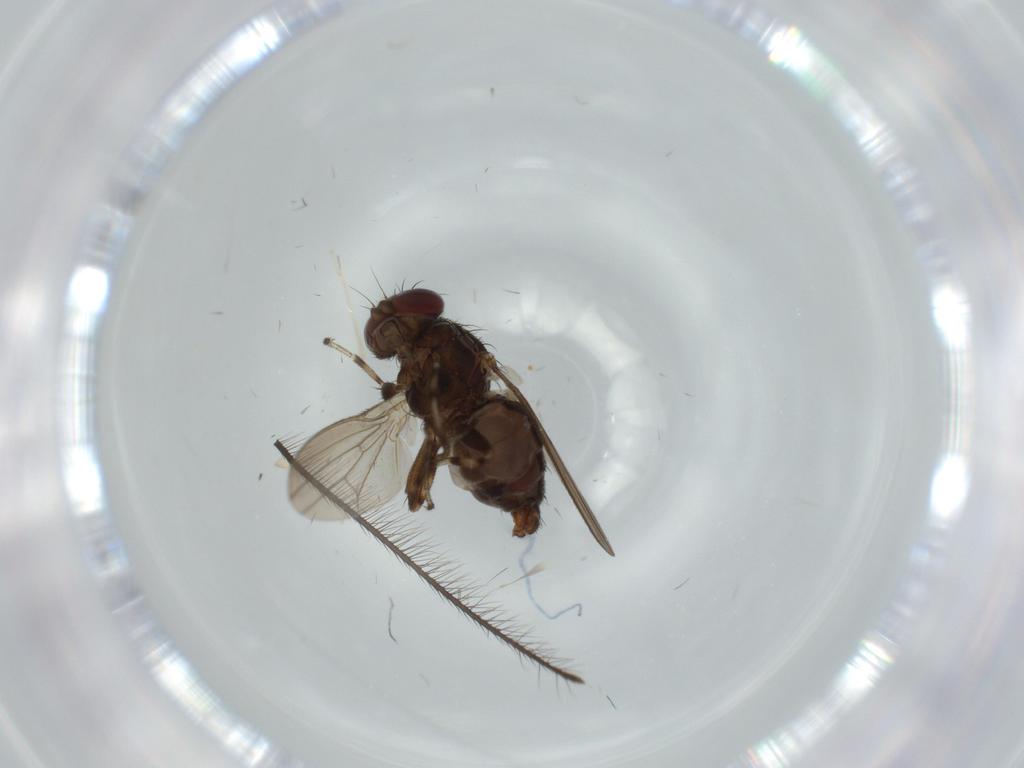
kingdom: Animalia
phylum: Arthropoda
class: Insecta
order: Diptera
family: Heleomyzidae
